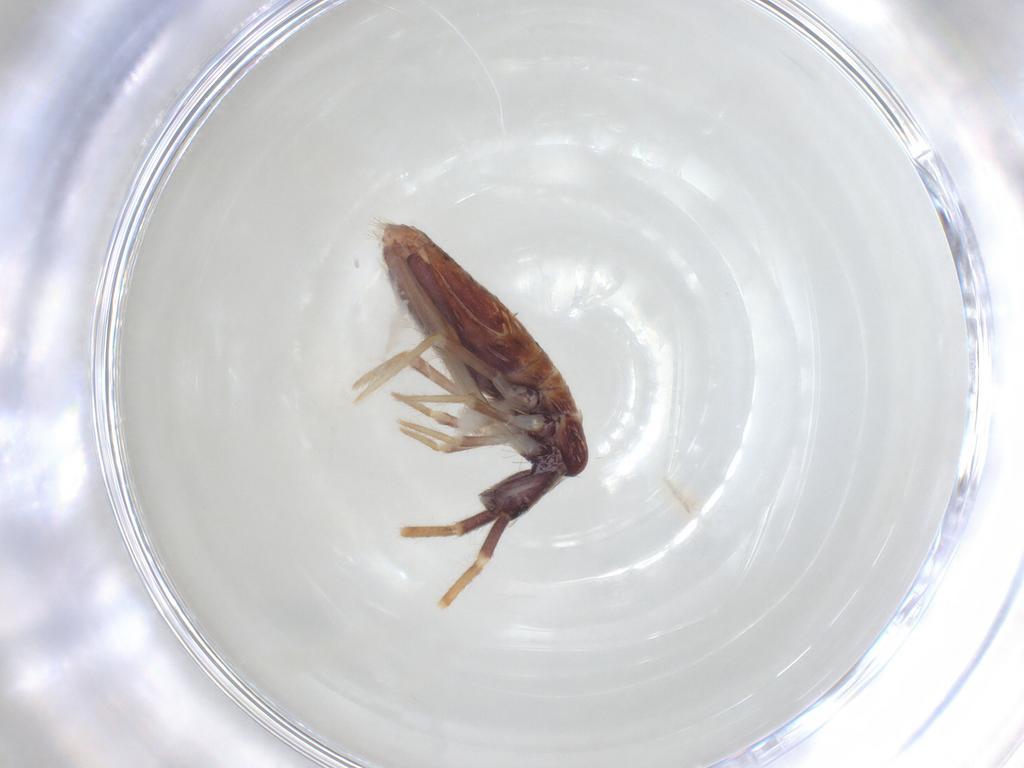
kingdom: Animalia
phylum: Arthropoda
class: Collembola
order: Entomobryomorpha
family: Entomobryidae
